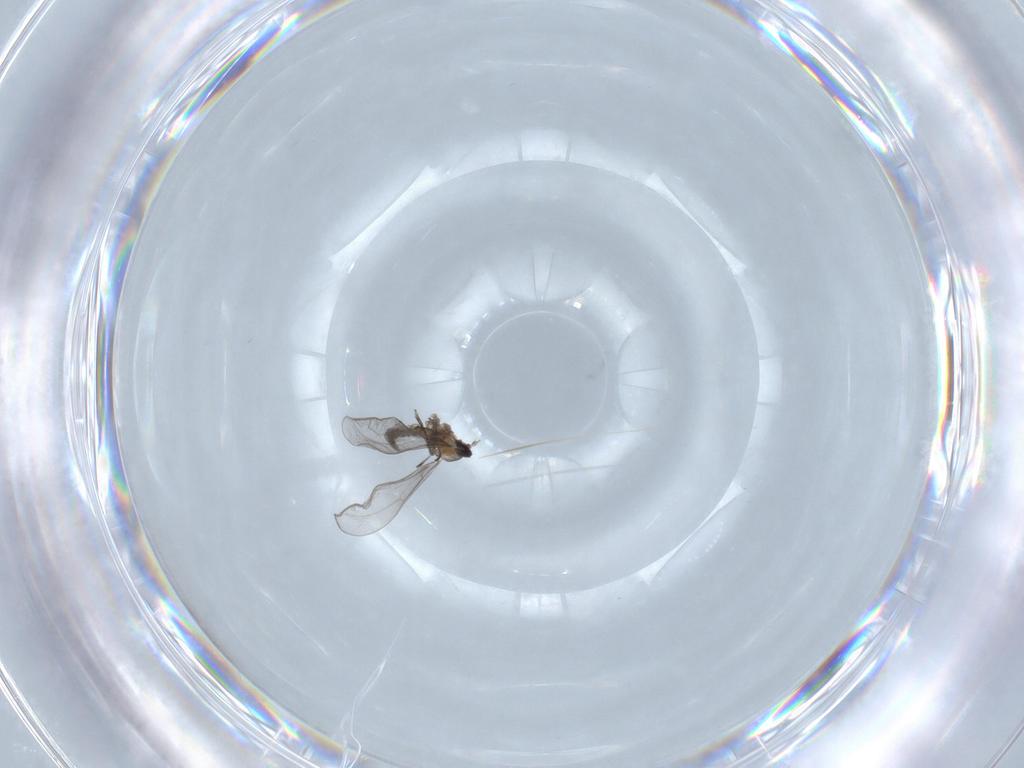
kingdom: Animalia
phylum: Arthropoda
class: Insecta
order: Diptera
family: Cecidomyiidae
